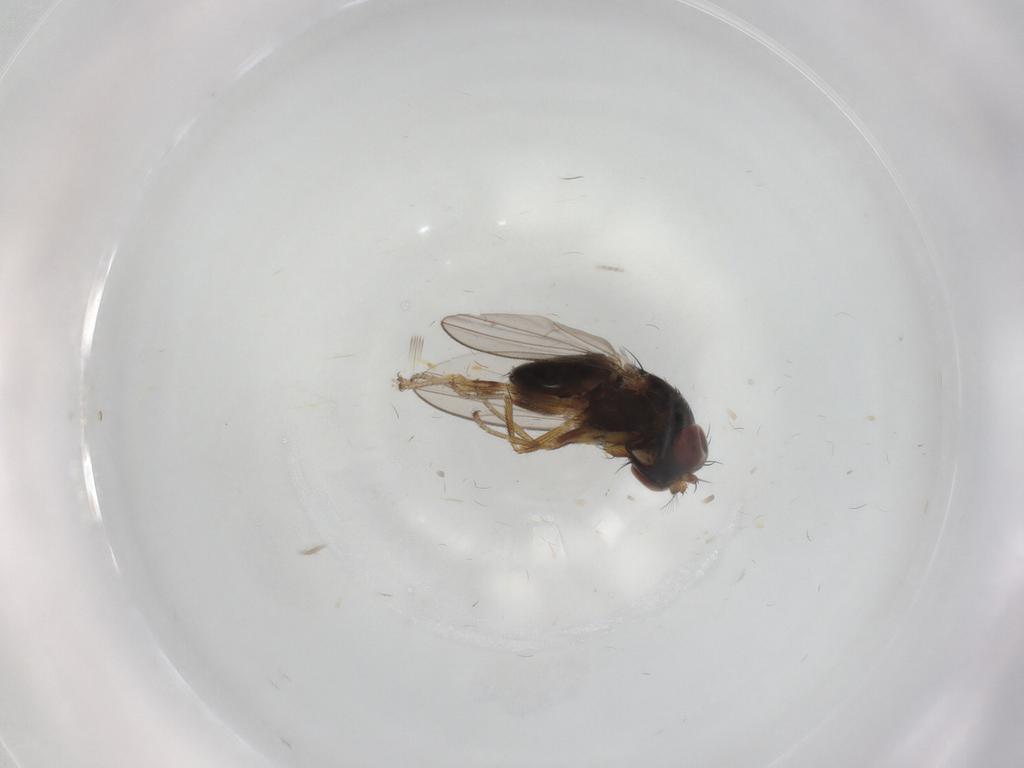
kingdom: Animalia
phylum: Arthropoda
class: Insecta
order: Diptera
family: Ephydridae
